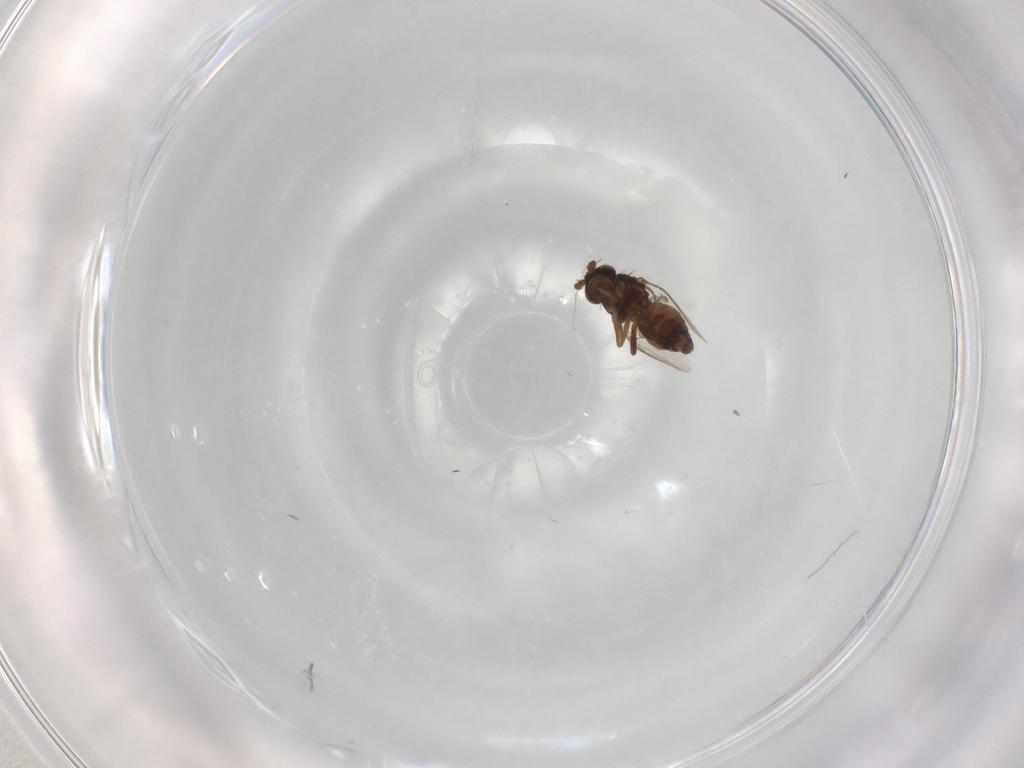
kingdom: Animalia
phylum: Arthropoda
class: Insecta
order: Diptera
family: Sphaeroceridae
